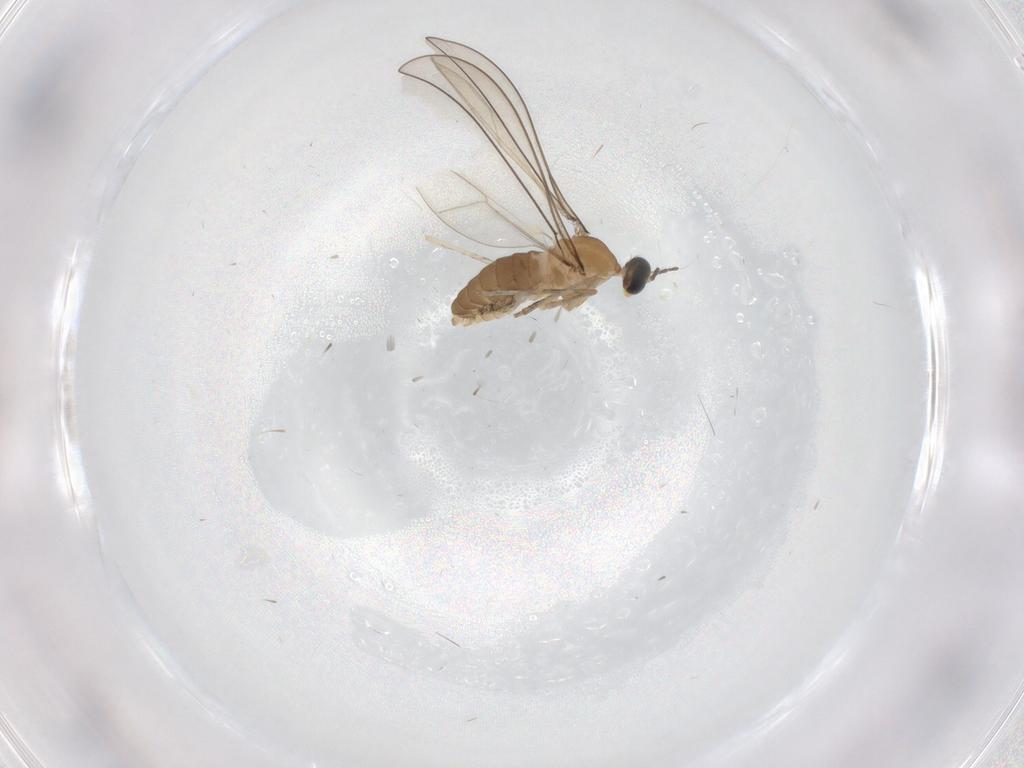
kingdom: Animalia
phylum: Arthropoda
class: Insecta
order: Diptera
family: Cecidomyiidae
